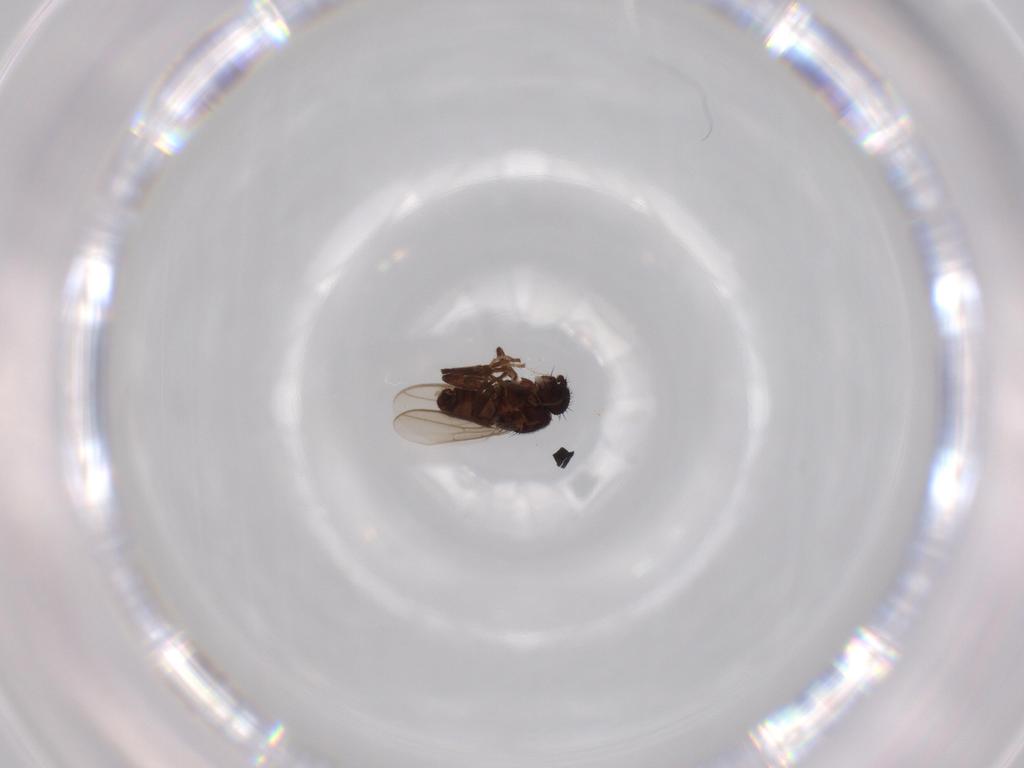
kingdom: Animalia
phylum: Arthropoda
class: Insecta
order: Diptera
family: Sphaeroceridae
